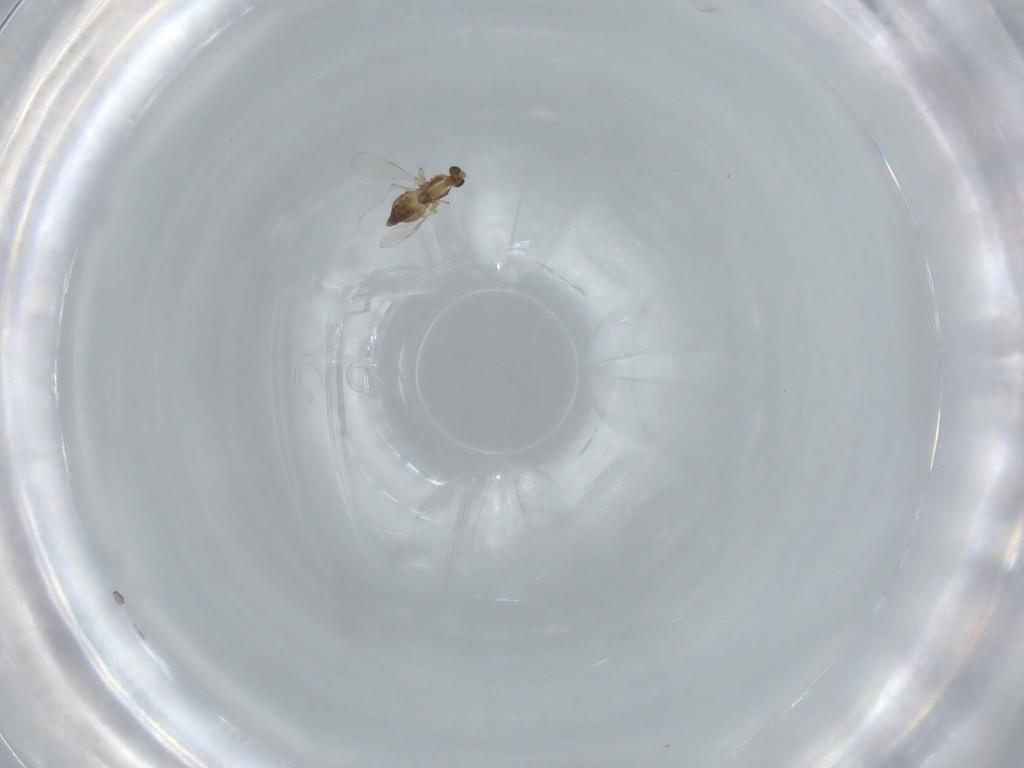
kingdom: Animalia
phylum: Arthropoda
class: Insecta
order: Diptera
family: Chironomidae
